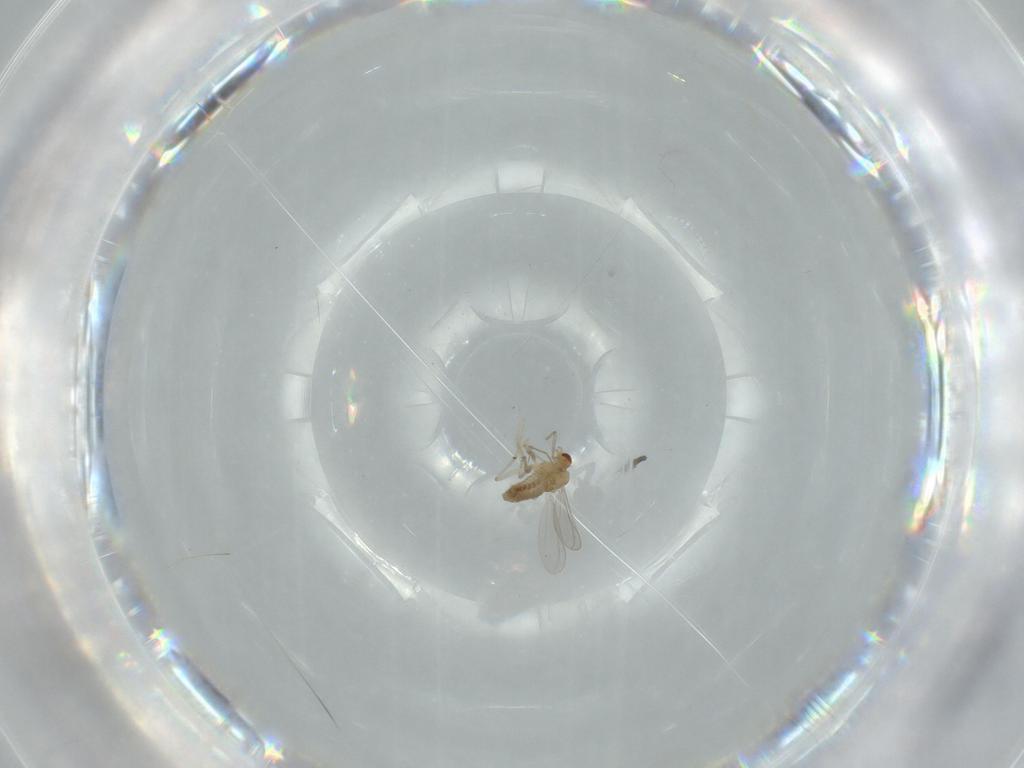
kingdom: Animalia
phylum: Arthropoda
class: Insecta
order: Diptera
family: Chironomidae
